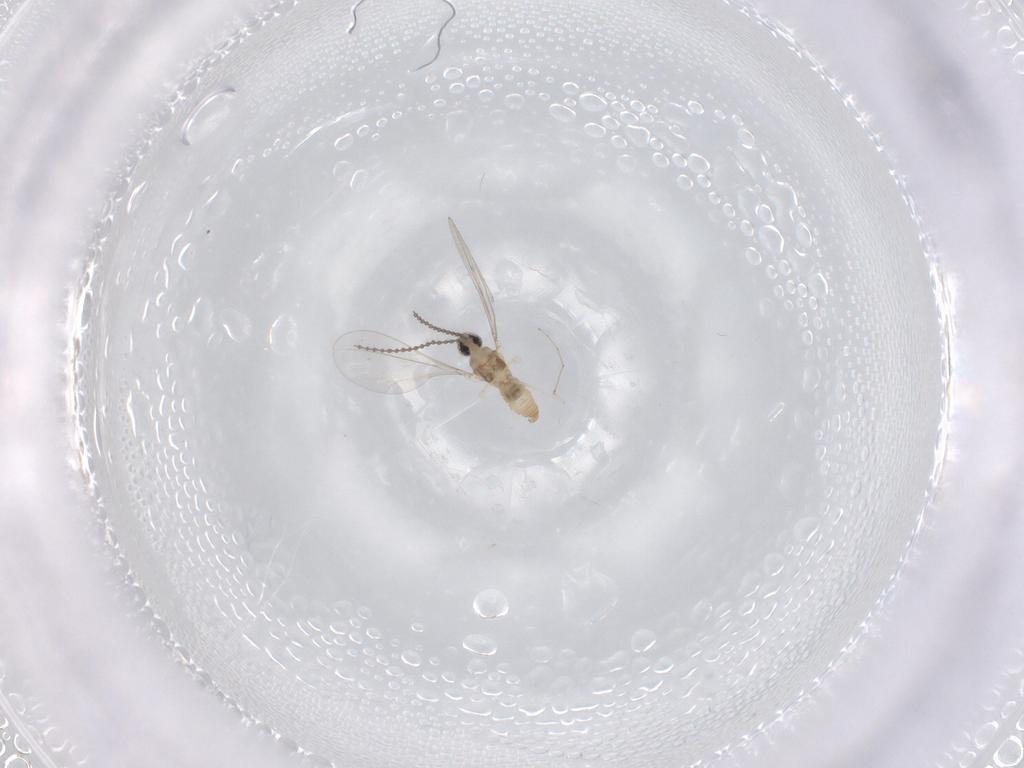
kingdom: Animalia
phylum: Arthropoda
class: Insecta
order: Diptera
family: Cecidomyiidae
